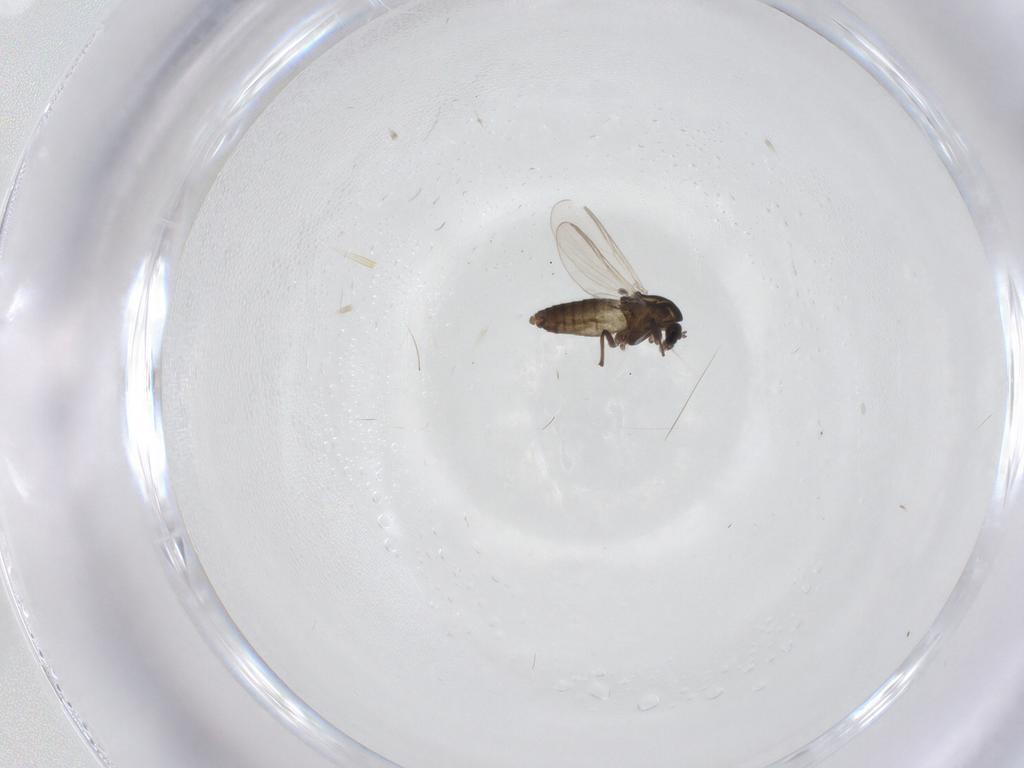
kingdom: Animalia
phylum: Arthropoda
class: Insecta
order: Diptera
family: Chironomidae
